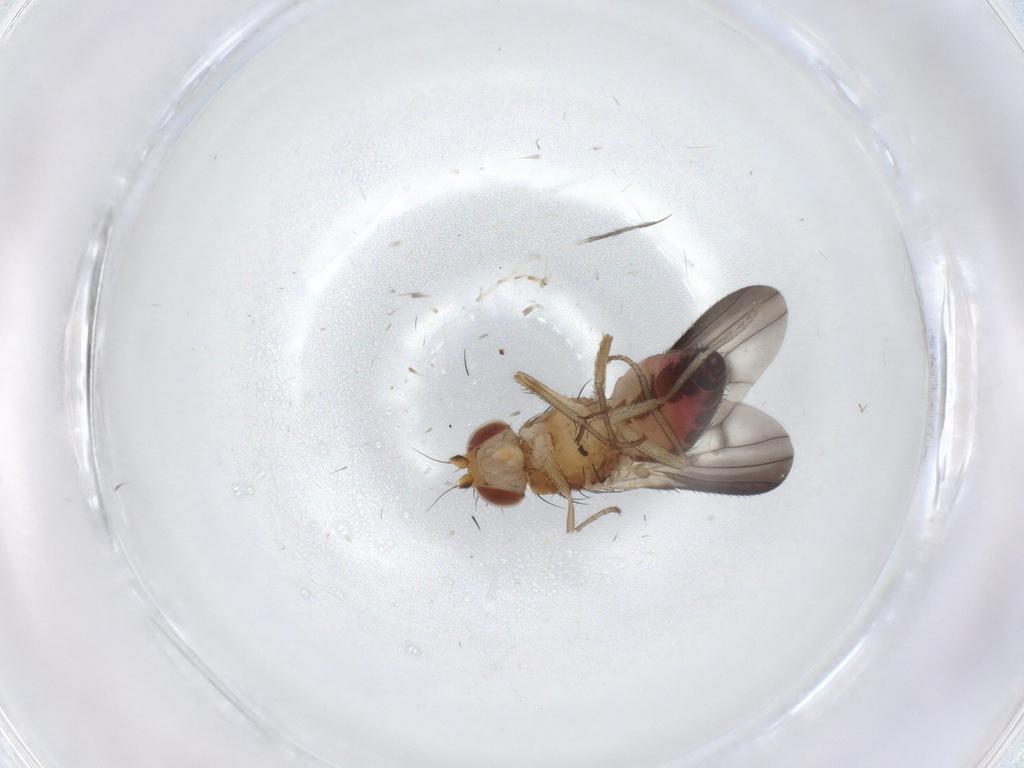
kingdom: Animalia
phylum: Arthropoda
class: Insecta
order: Diptera
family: Heleomyzidae
